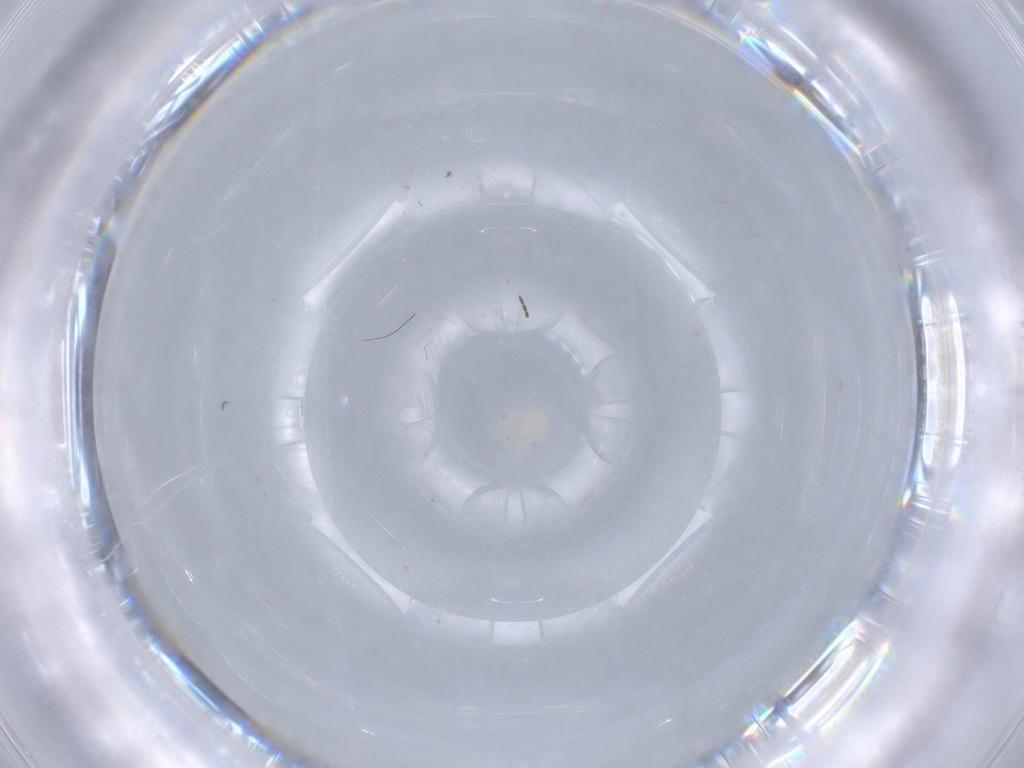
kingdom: Animalia
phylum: Arthropoda
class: Arachnida
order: Trombidiformes
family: Anystidae
